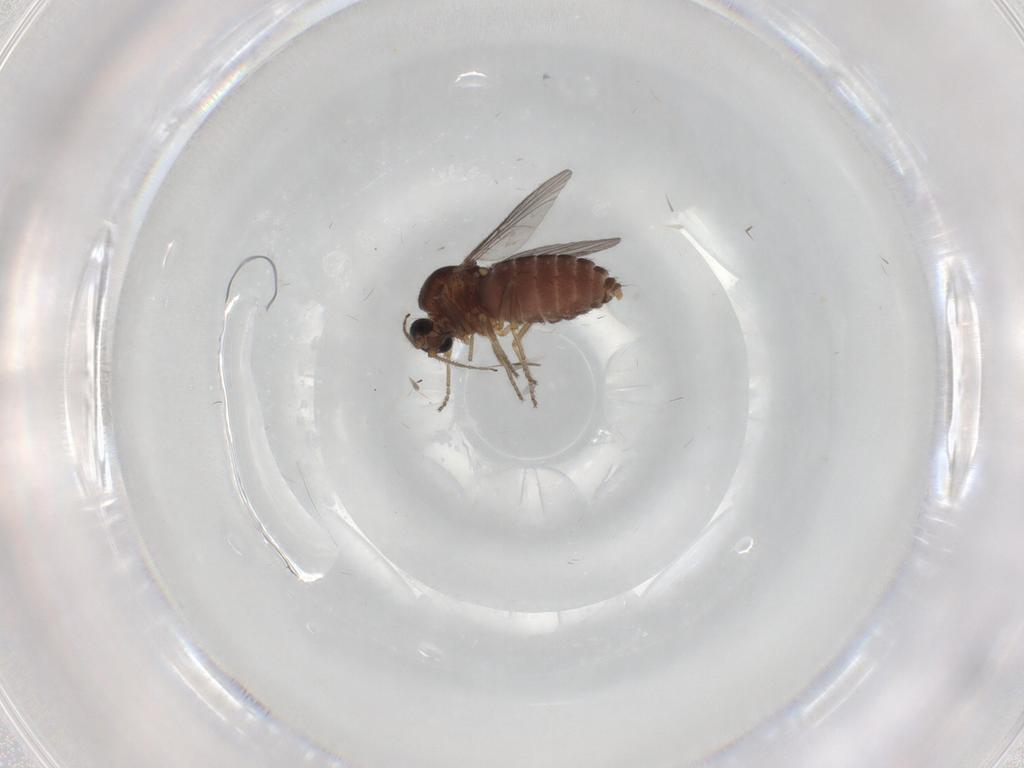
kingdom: Animalia
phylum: Arthropoda
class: Insecta
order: Diptera
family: Ceratopogonidae
